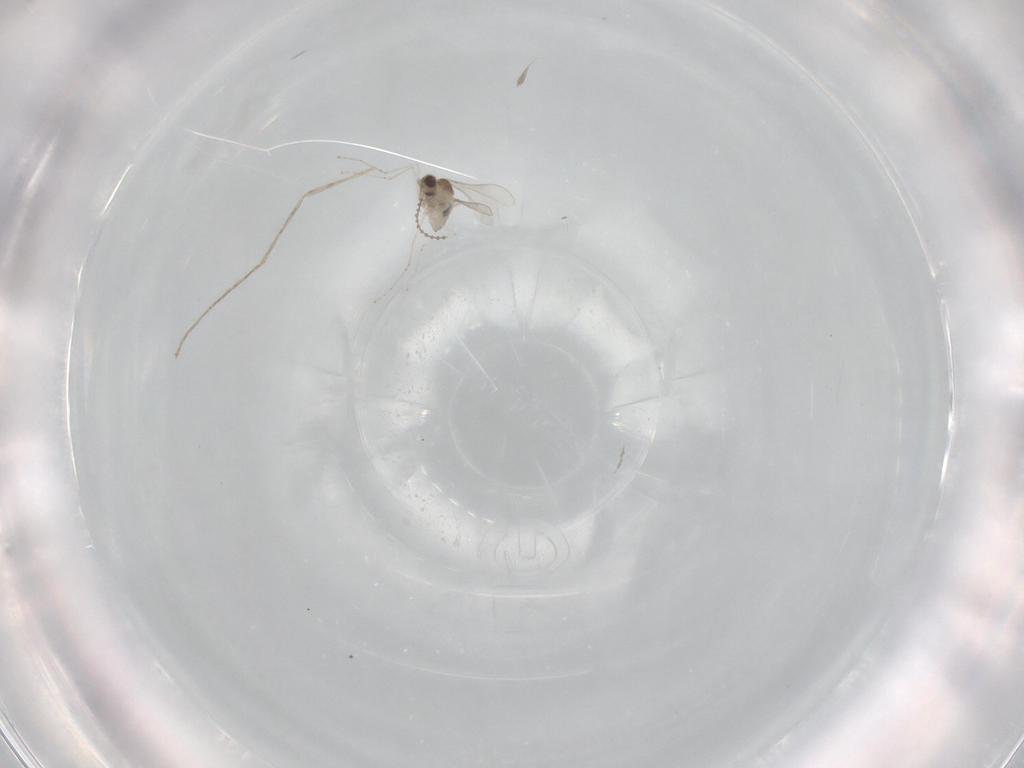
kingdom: Animalia
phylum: Arthropoda
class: Insecta
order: Diptera
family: Cecidomyiidae
